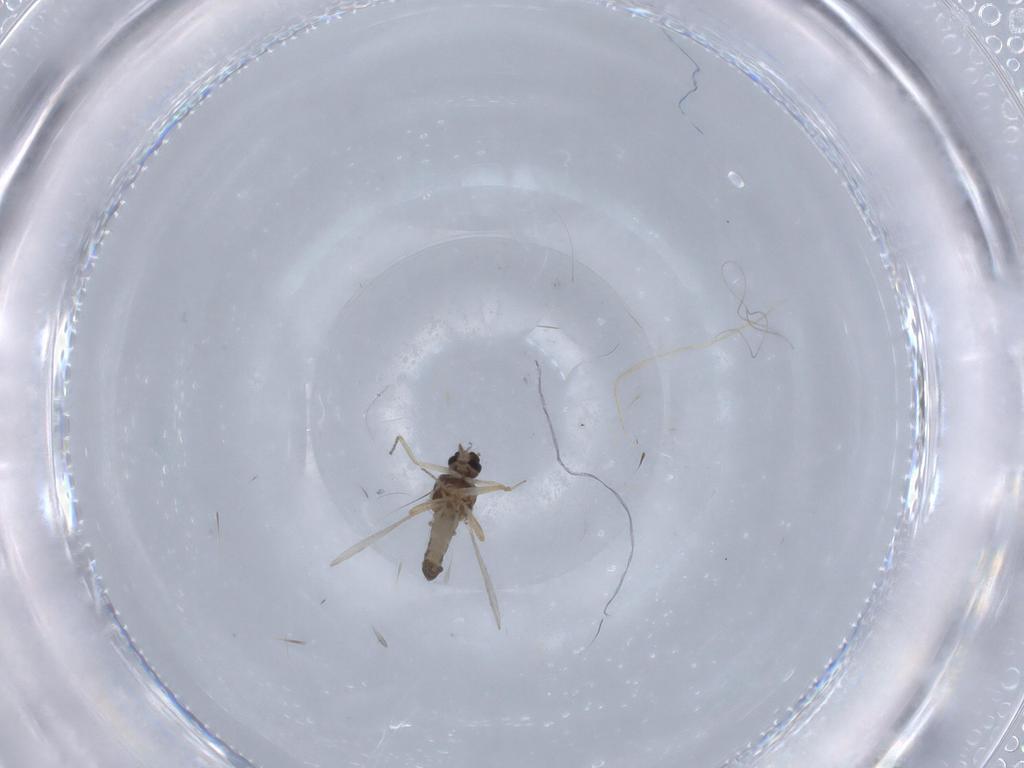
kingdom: Animalia
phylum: Arthropoda
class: Insecta
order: Diptera
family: Ceratopogonidae
